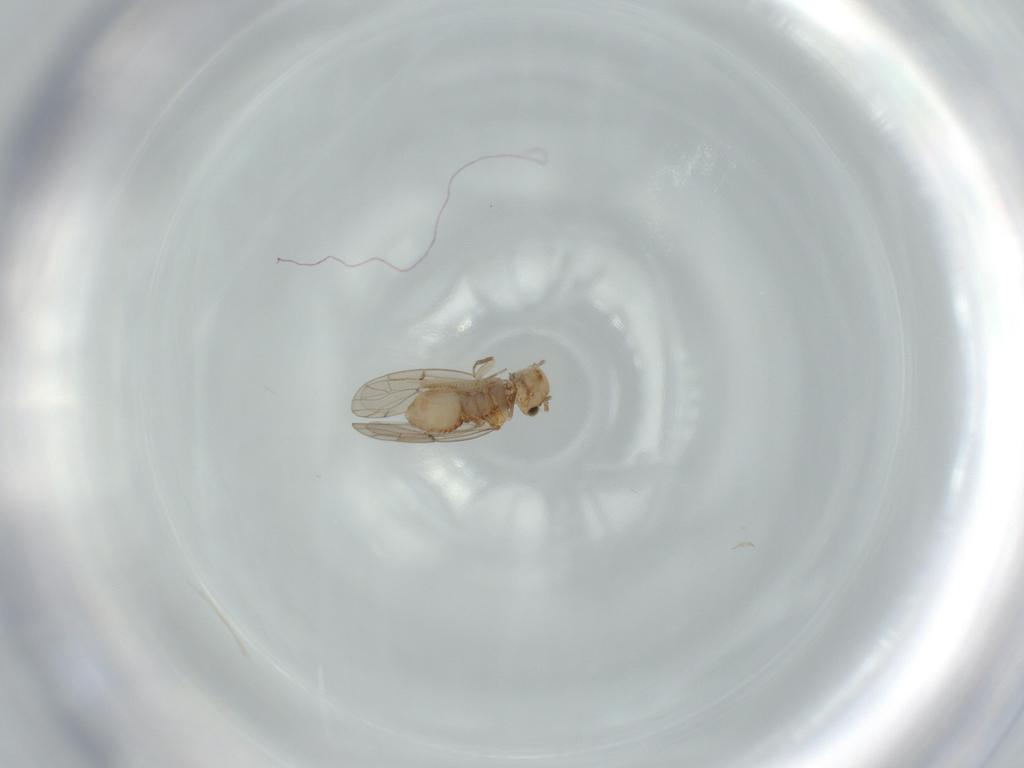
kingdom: Animalia
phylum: Arthropoda
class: Insecta
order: Psocodea
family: Ectopsocidae
